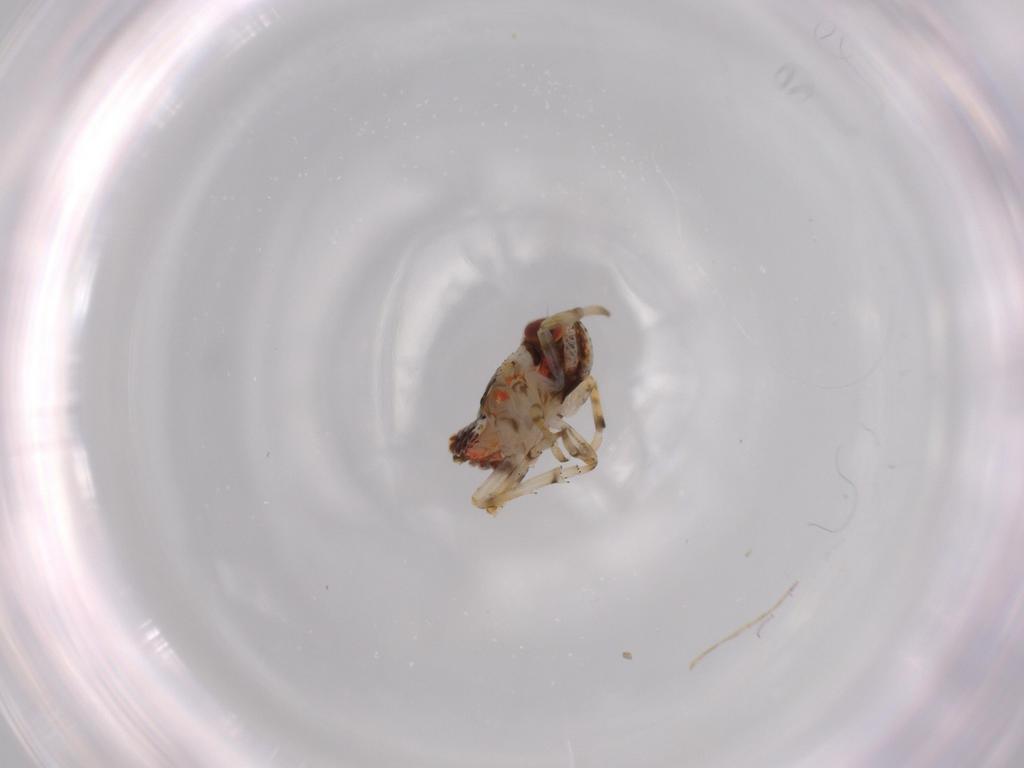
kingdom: Animalia
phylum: Arthropoda
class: Insecta
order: Hemiptera
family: Issidae
